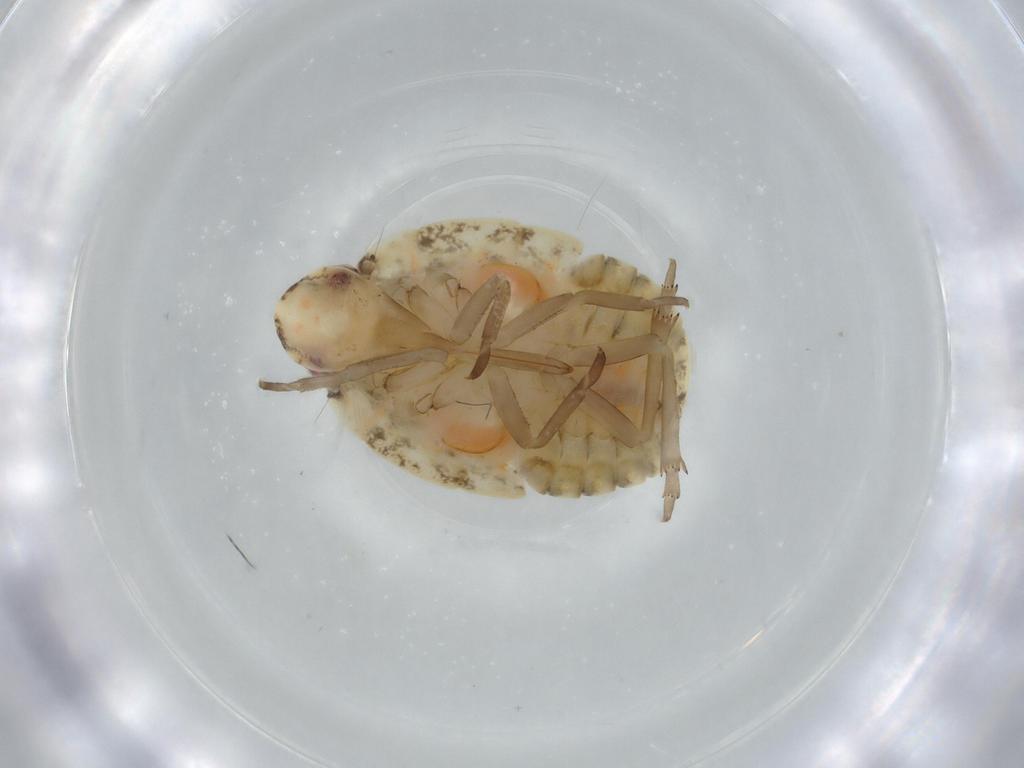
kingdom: Animalia
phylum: Arthropoda
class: Insecta
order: Hemiptera
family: Flatidae
